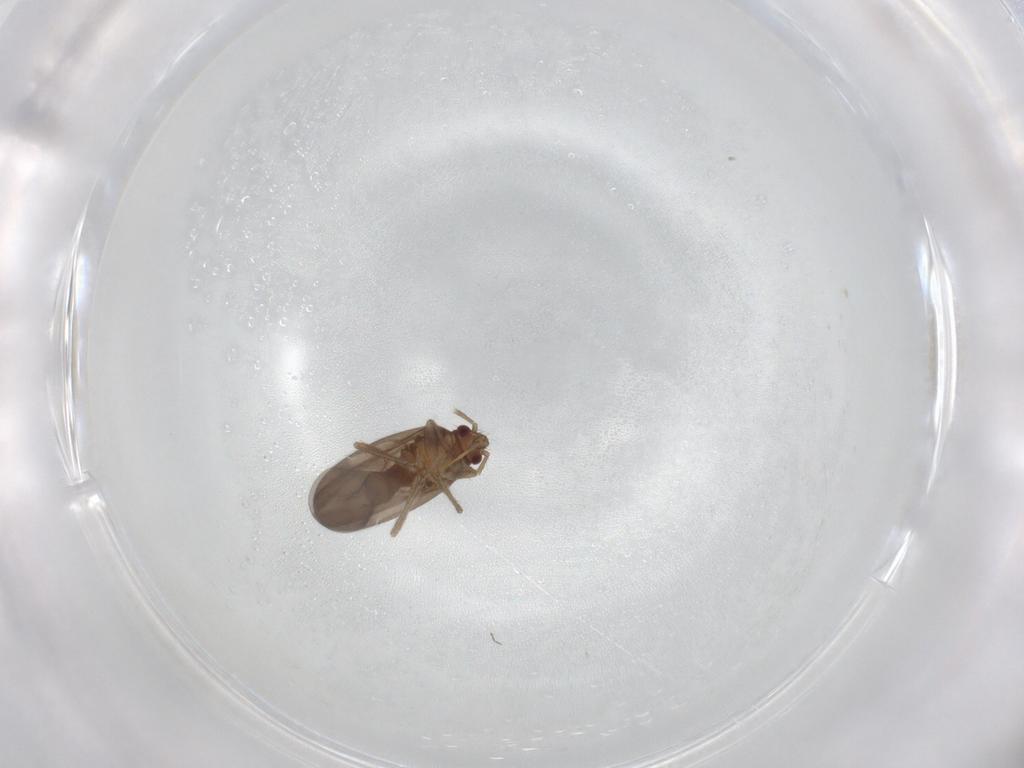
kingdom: Animalia
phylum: Arthropoda
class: Insecta
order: Hemiptera
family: Ceratocombidae
